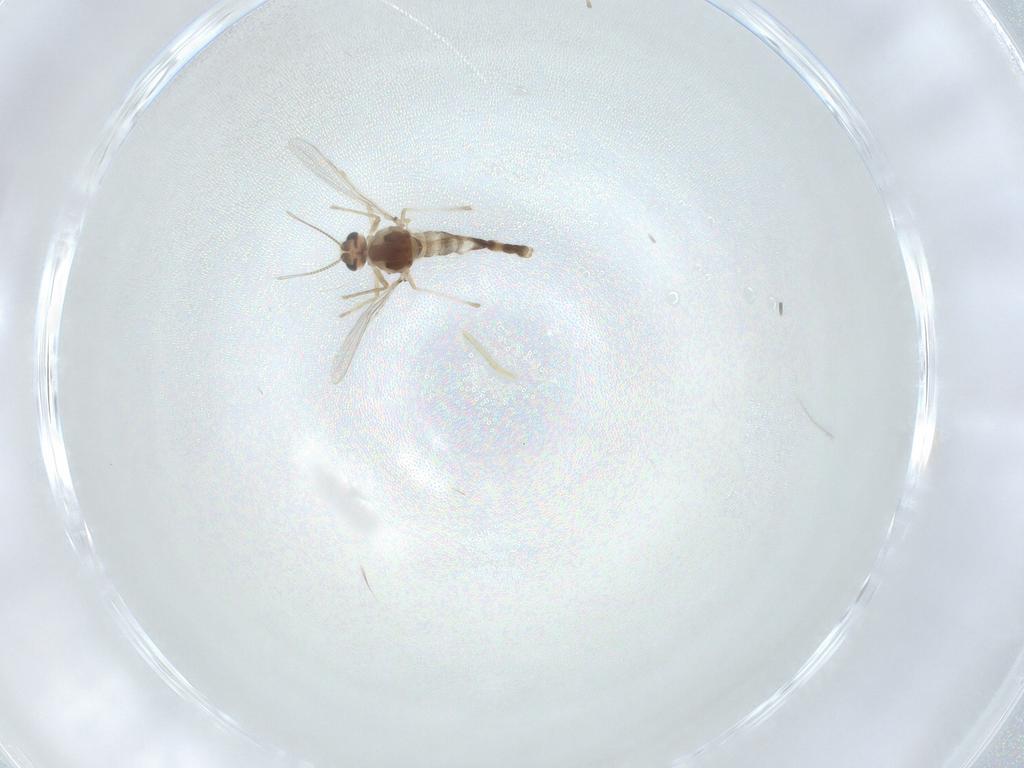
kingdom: Animalia
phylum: Arthropoda
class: Insecta
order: Diptera
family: Chironomidae
